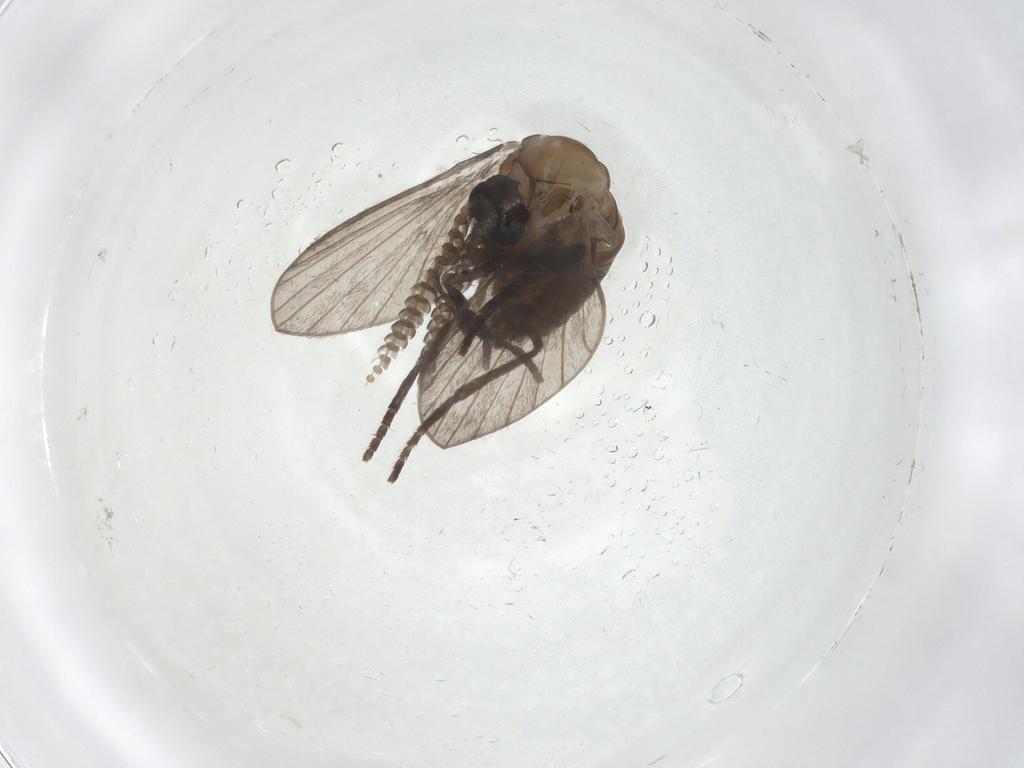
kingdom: Animalia
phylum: Arthropoda
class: Insecta
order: Diptera
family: Psychodidae
